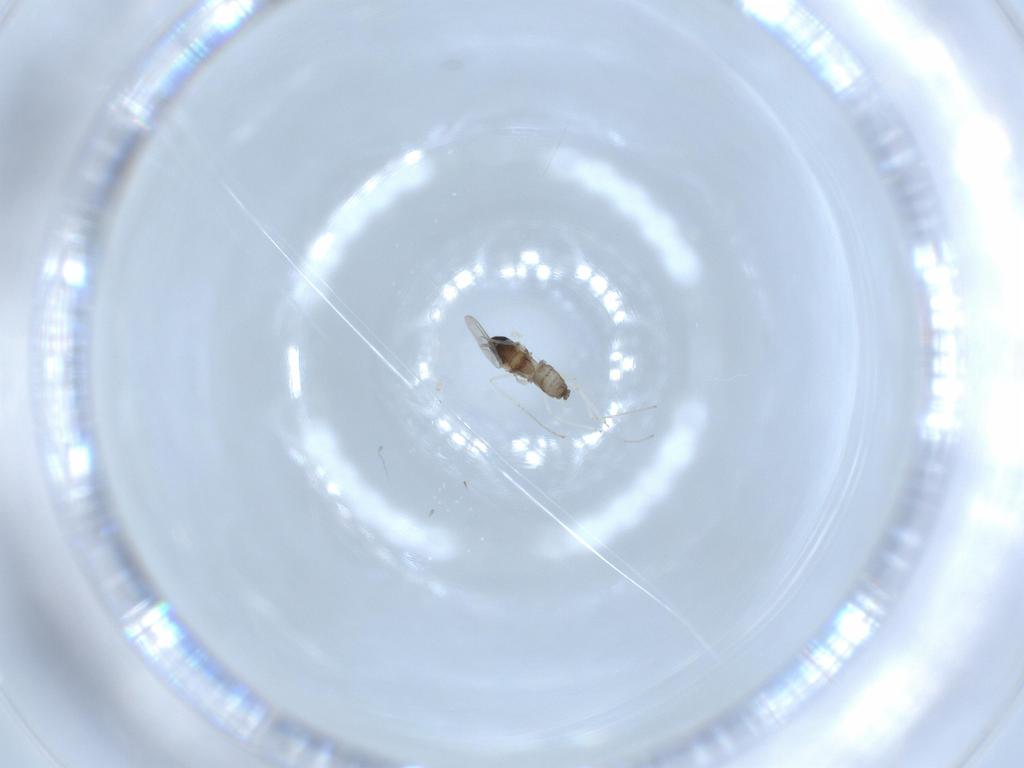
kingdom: Animalia
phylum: Arthropoda
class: Insecta
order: Diptera
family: Cecidomyiidae
